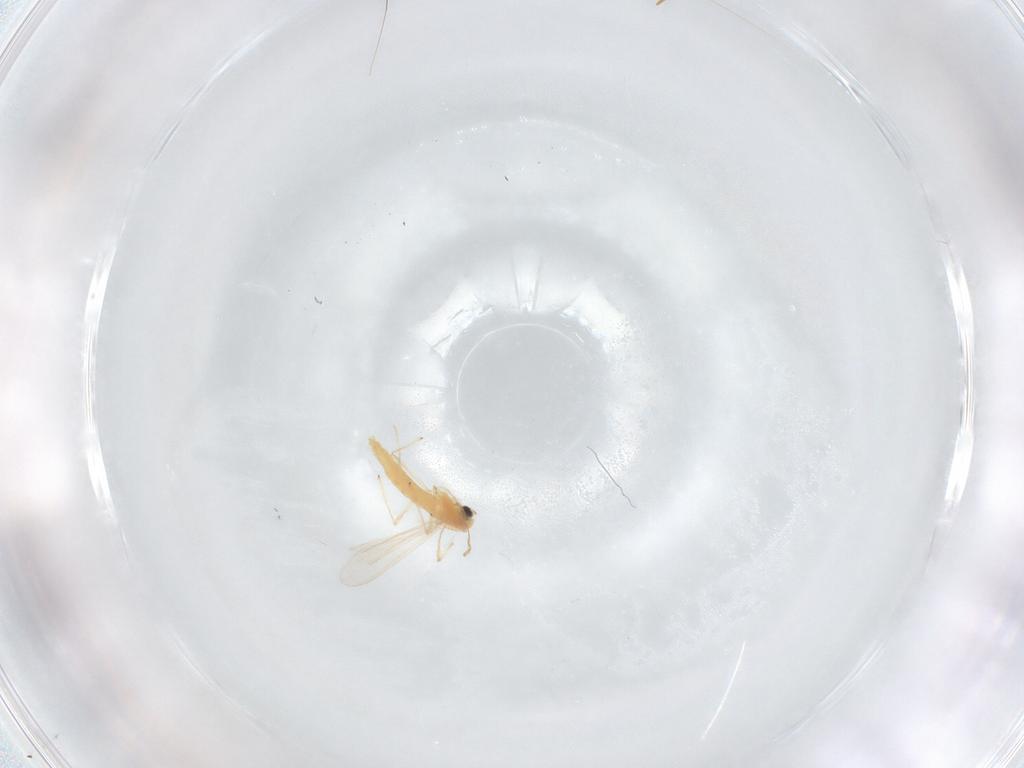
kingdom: Animalia
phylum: Arthropoda
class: Insecta
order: Diptera
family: Chironomidae
